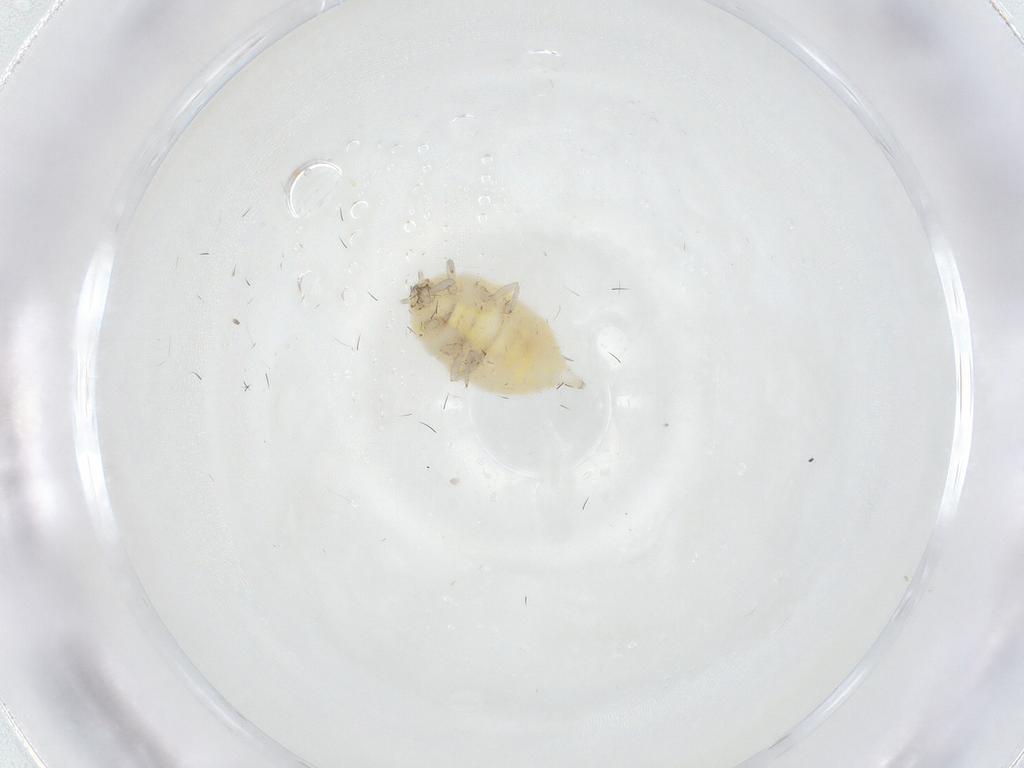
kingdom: Animalia
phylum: Arthropoda
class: Insecta
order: Neuroptera
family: Coniopterygidae
